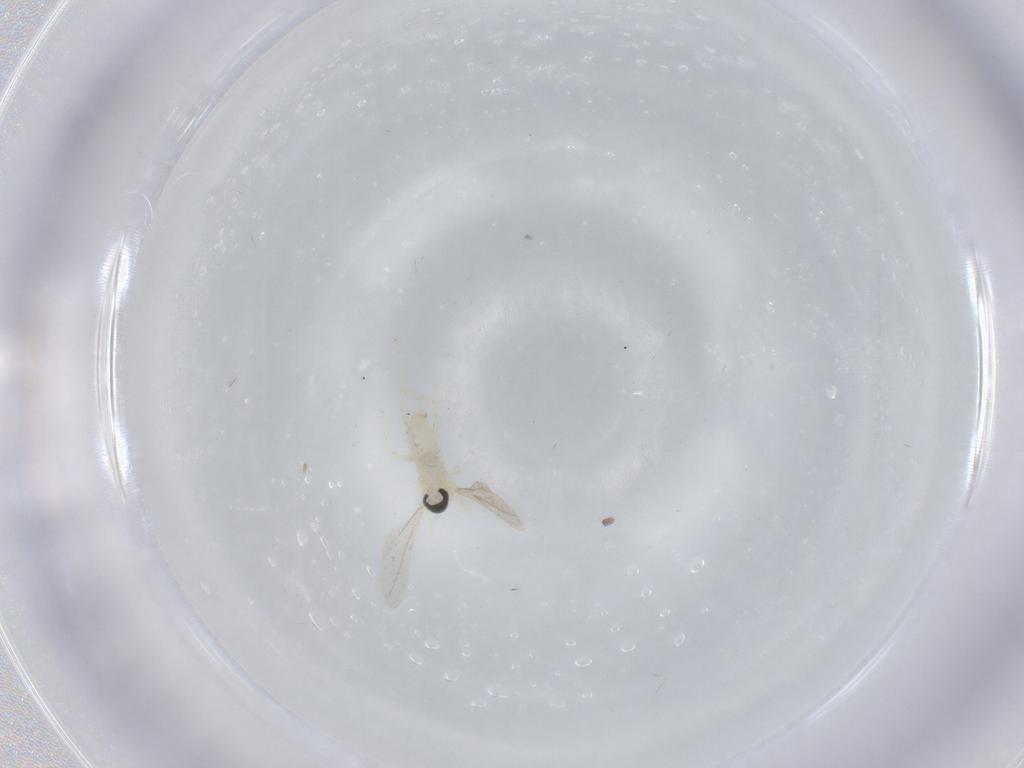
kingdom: Animalia
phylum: Arthropoda
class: Insecta
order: Diptera
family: Cecidomyiidae
